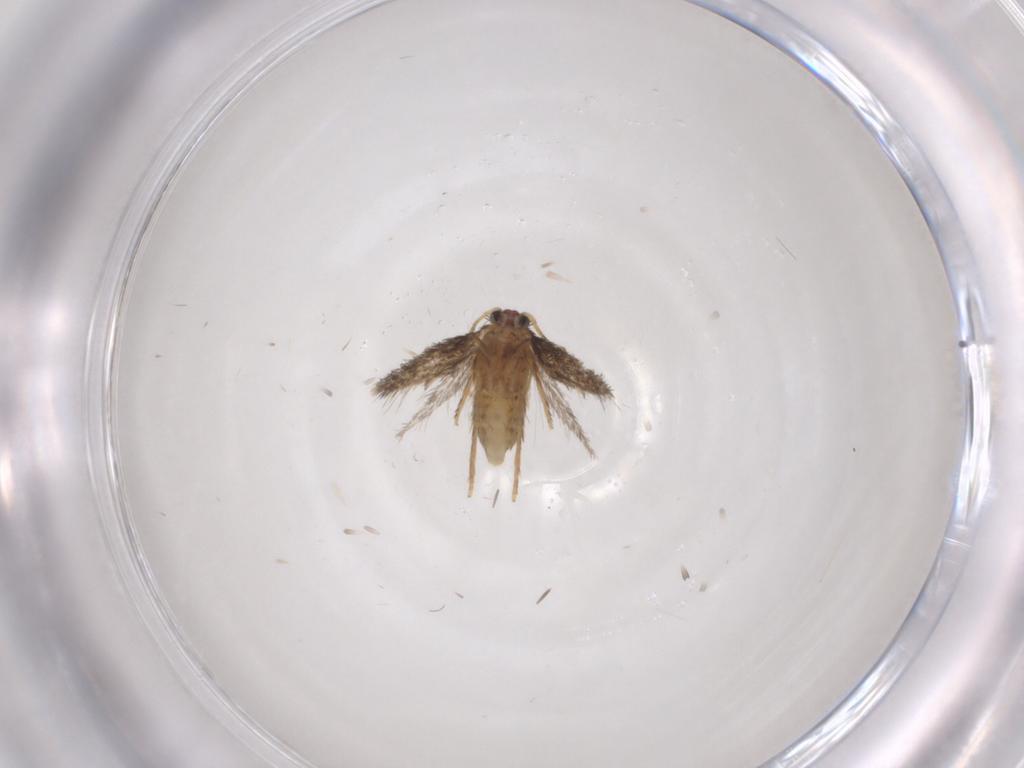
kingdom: Animalia
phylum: Arthropoda
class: Insecta
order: Lepidoptera
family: Nepticulidae
